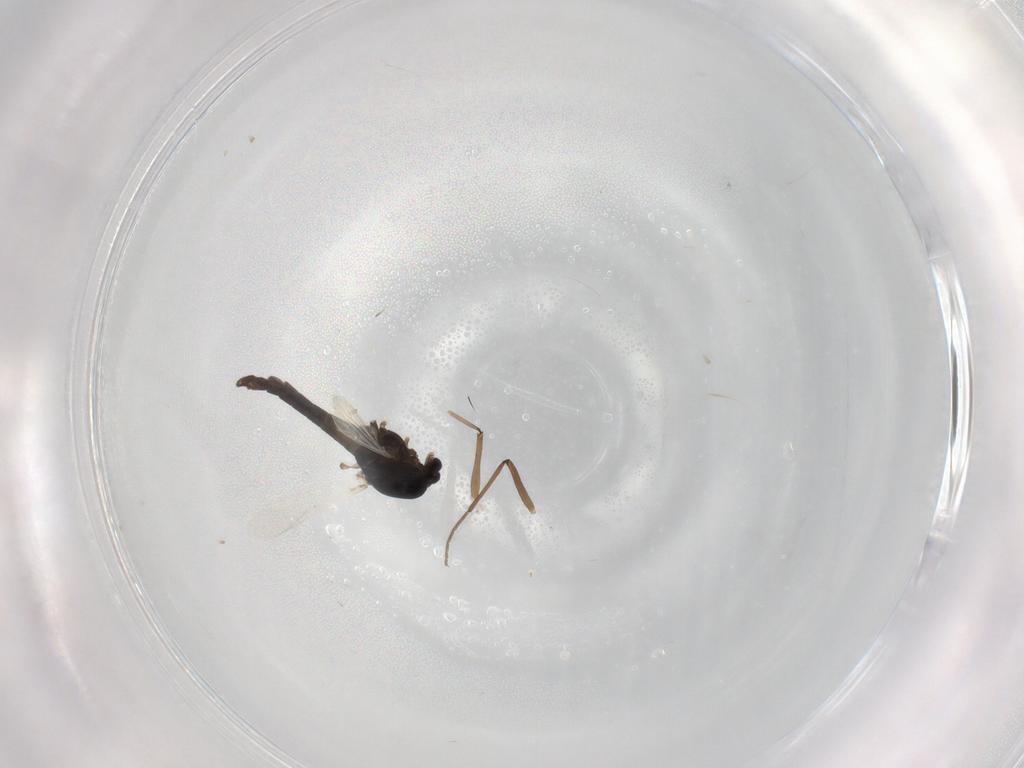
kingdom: Animalia
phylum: Arthropoda
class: Insecta
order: Diptera
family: Chironomidae
